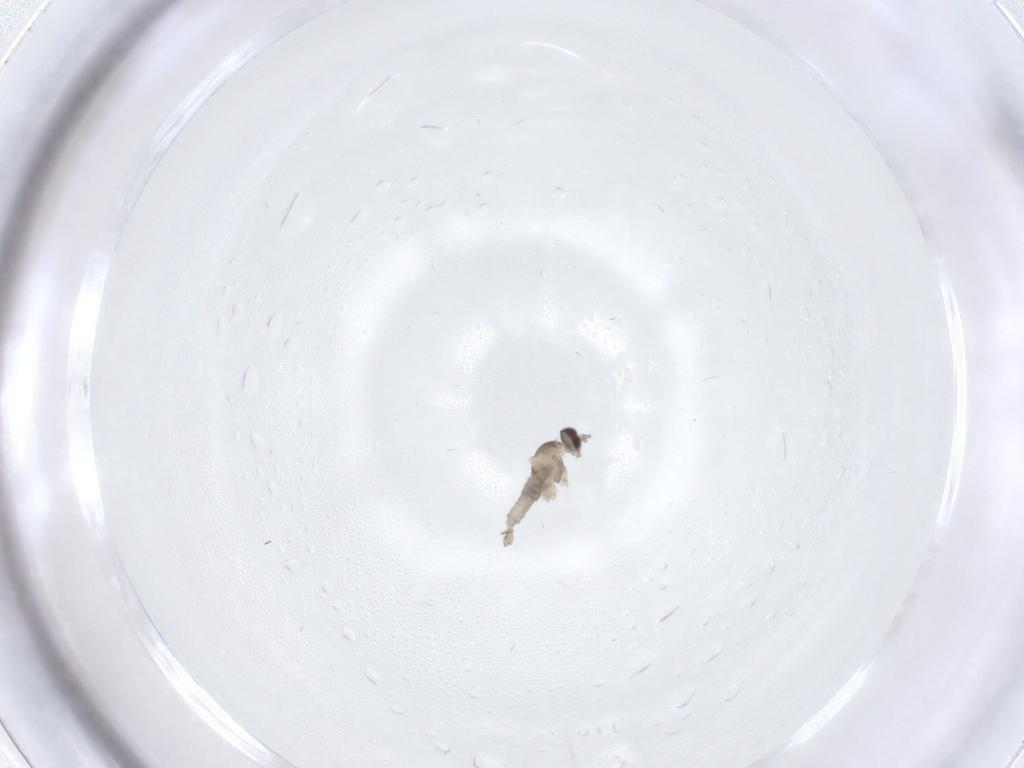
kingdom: Animalia
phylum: Arthropoda
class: Insecta
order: Diptera
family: Cecidomyiidae
